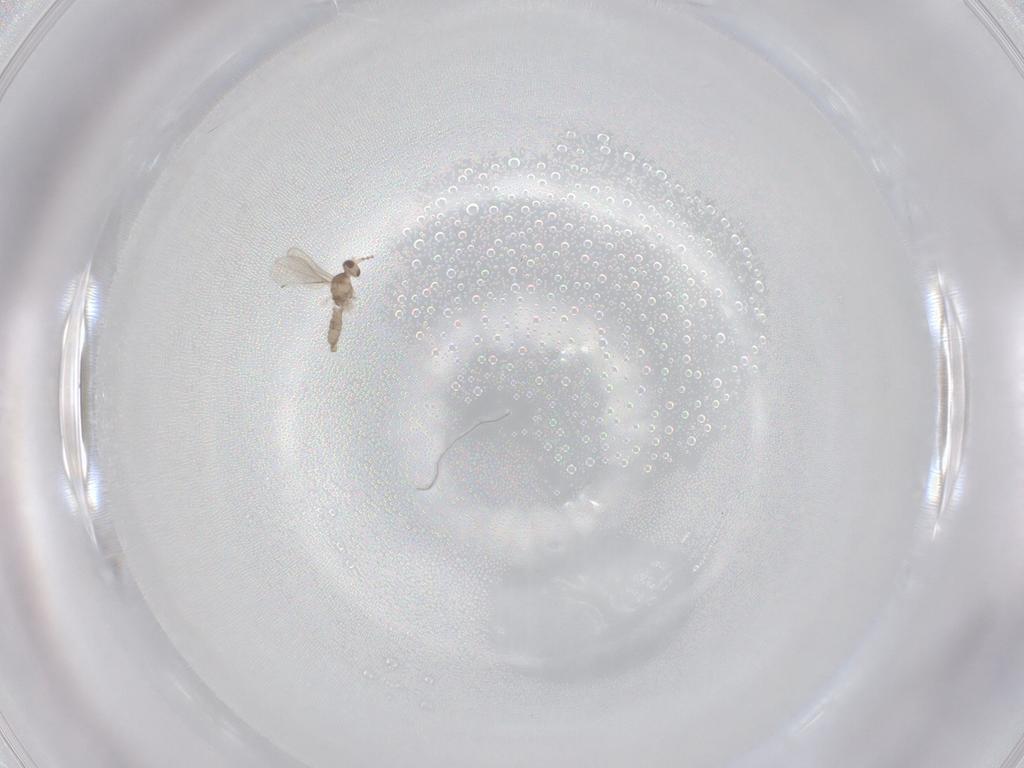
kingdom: Animalia
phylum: Arthropoda
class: Insecta
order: Diptera
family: Cecidomyiidae
